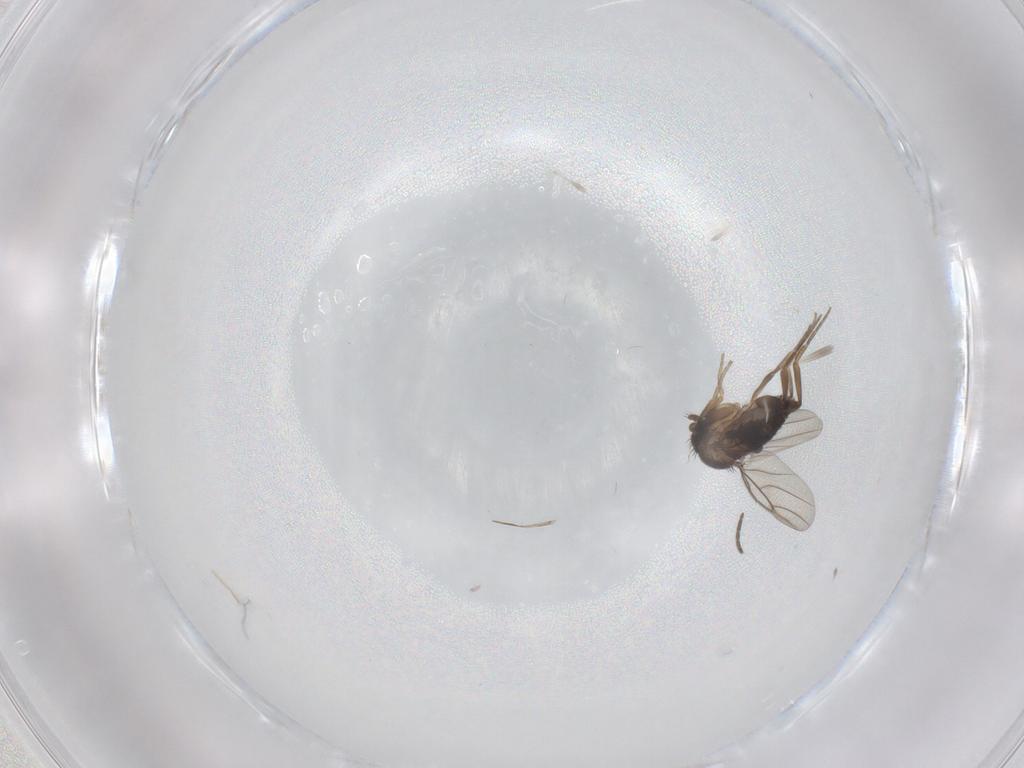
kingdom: Animalia
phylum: Arthropoda
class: Insecta
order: Diptera
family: Phoridae
